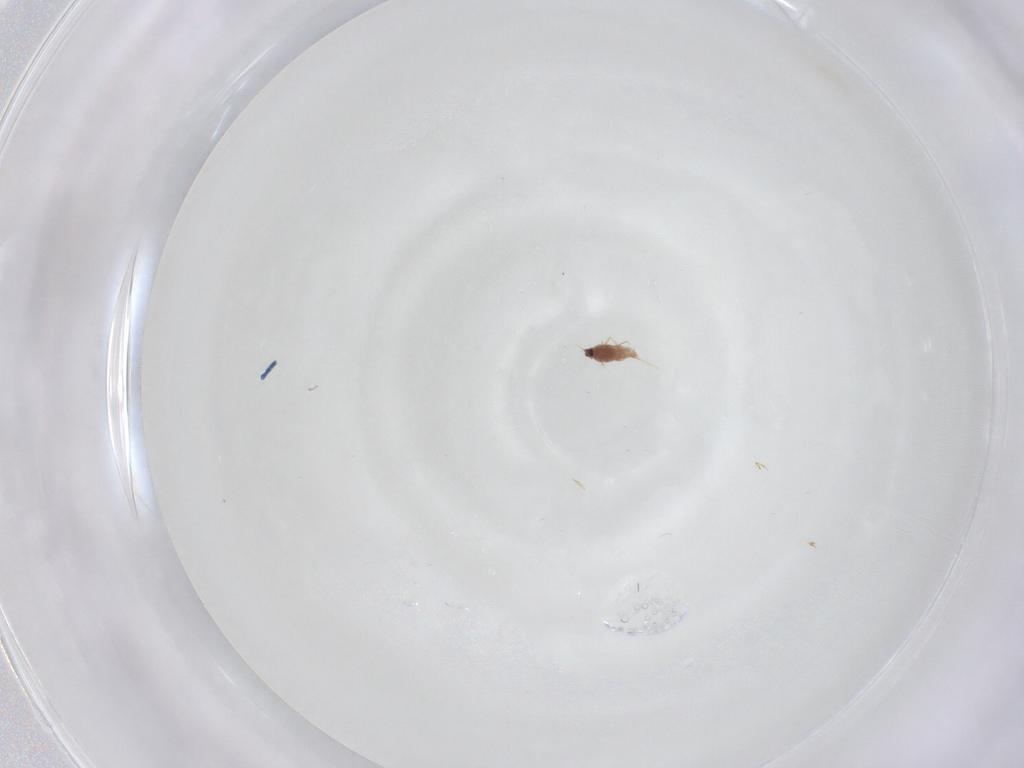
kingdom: Animalia
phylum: Arthropoda
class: Insecta
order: Hemiptera
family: Diaspididae
